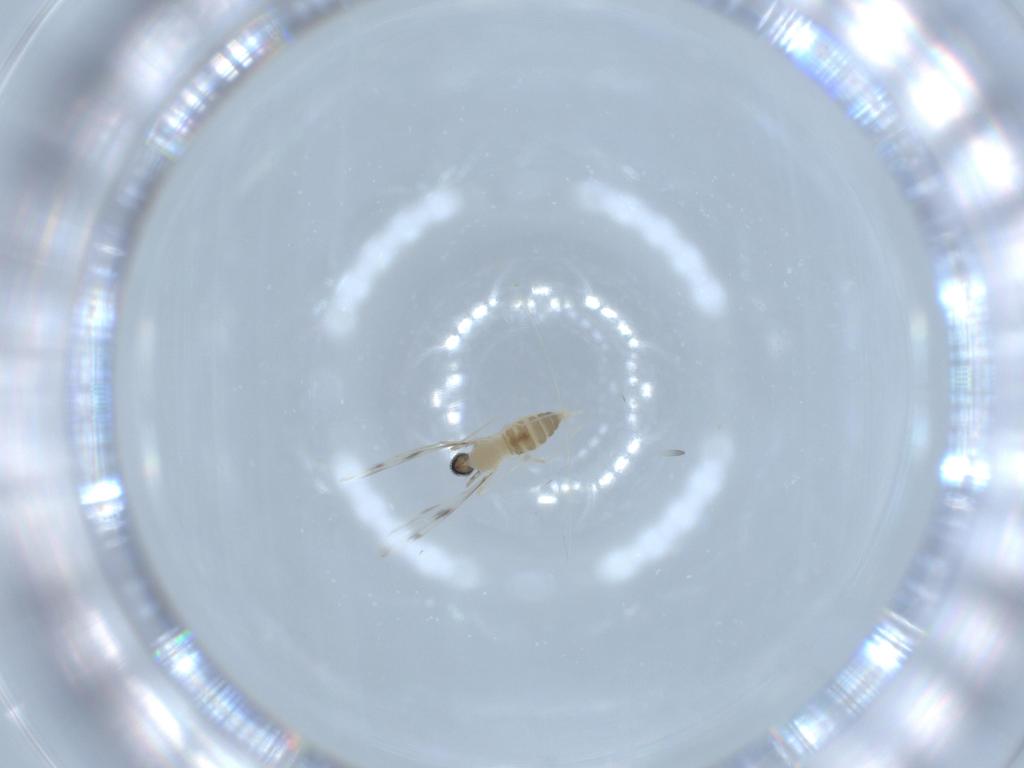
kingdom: Animalia
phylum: Arthropoda
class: Insecta
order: Diptera
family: Cecidomyiidae
